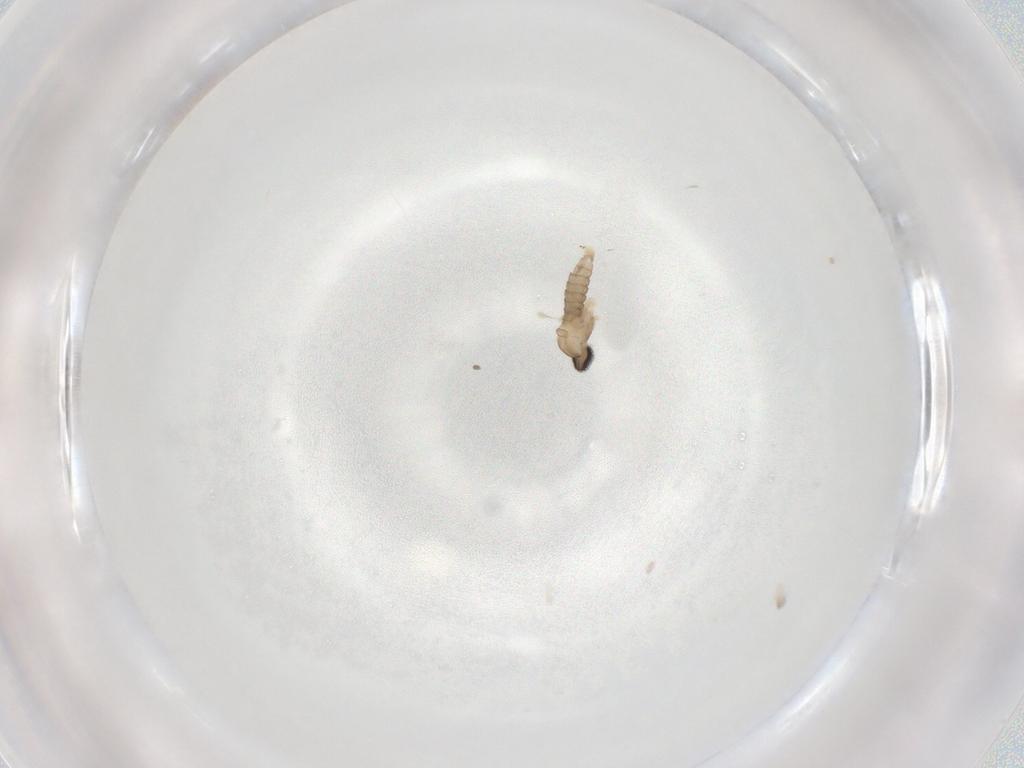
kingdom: Animalia
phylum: Arthropoda
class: Insecta
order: Diptera
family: Cecidomyiidae
